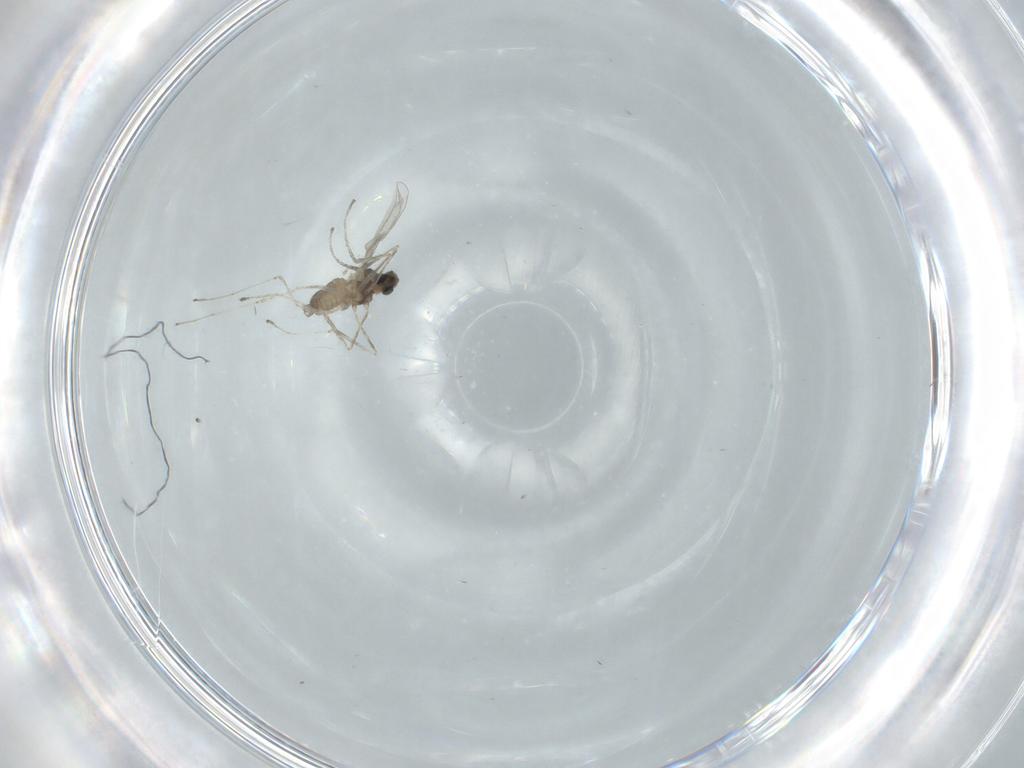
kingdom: Animalia
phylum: Arthropoda
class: Insecta
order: Diptera
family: Cecidomyiidae
